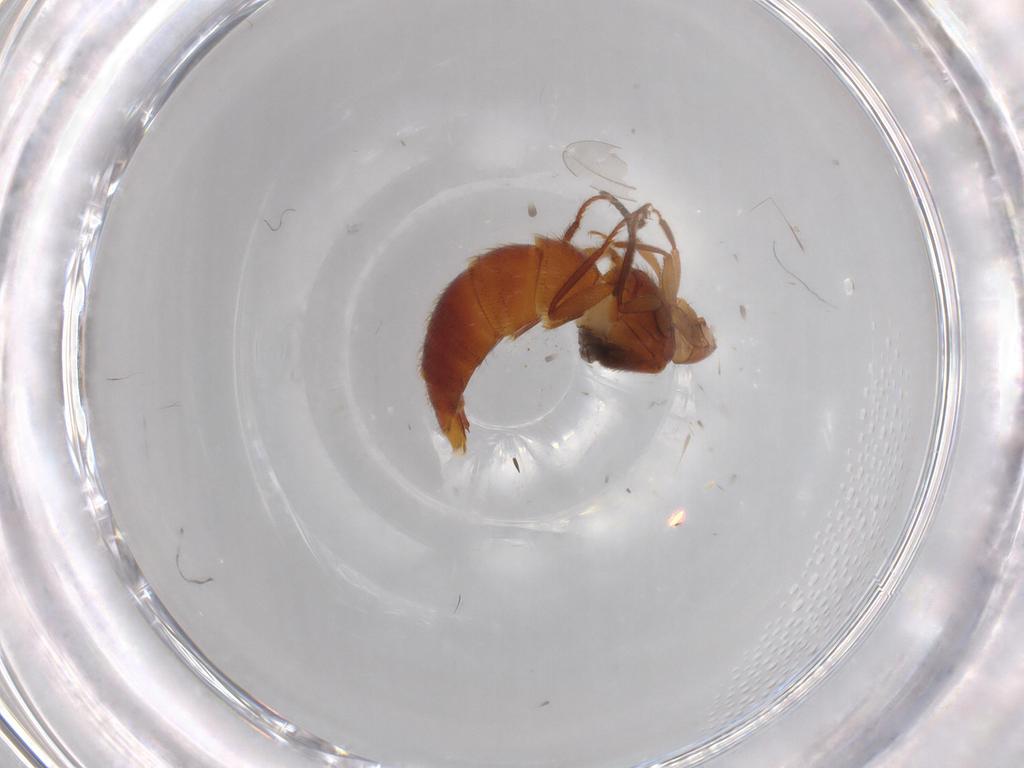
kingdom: Animalia
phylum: Arthropoda
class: Insecta
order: Coleoptera
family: Staphylinidae
